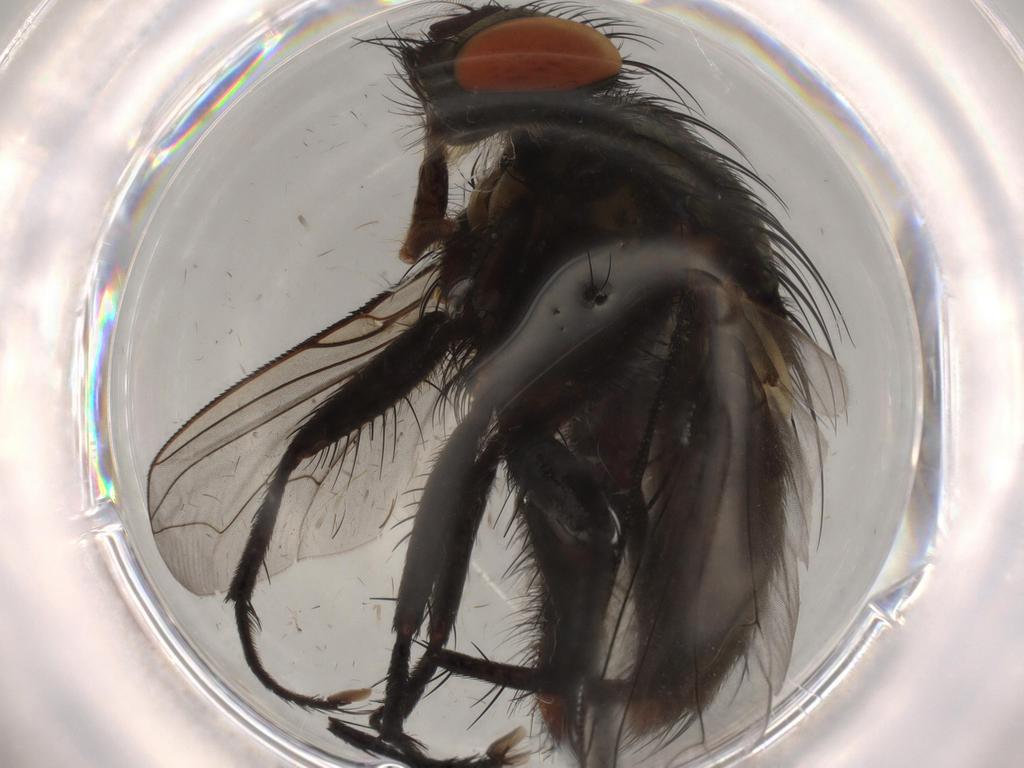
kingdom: Animalia
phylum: Arthropoda
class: Insecta
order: Diptera
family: Sarcophagidae
